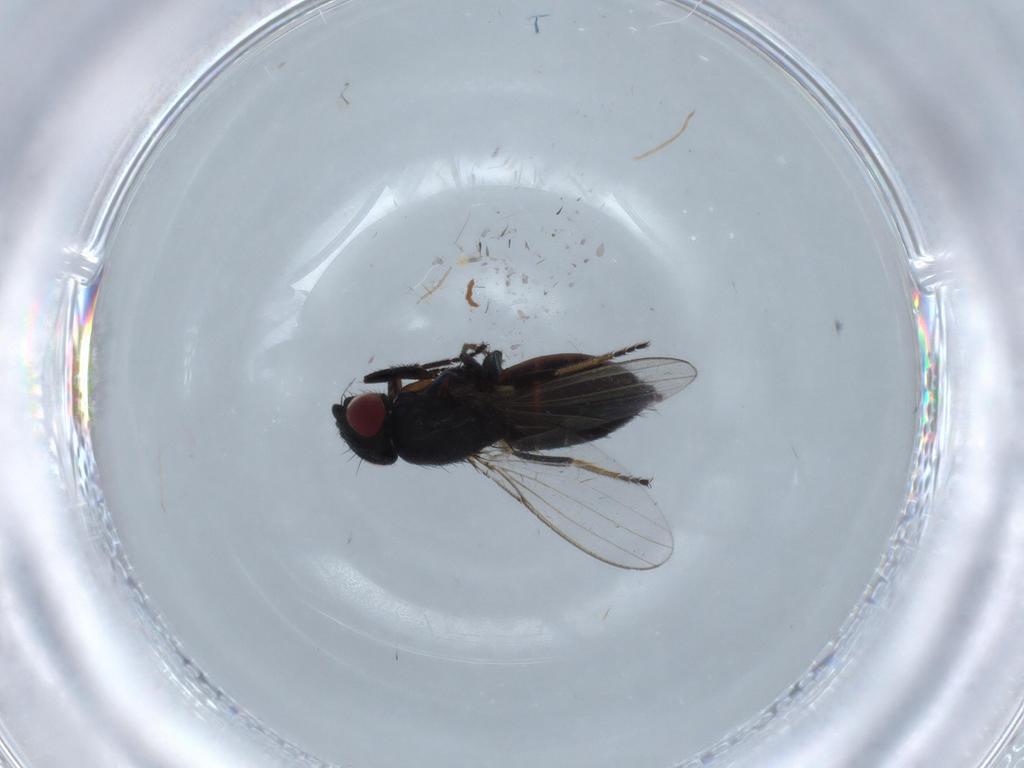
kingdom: Animalia
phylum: Arthropoda
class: Insecta
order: Diptera
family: Milichiidae
